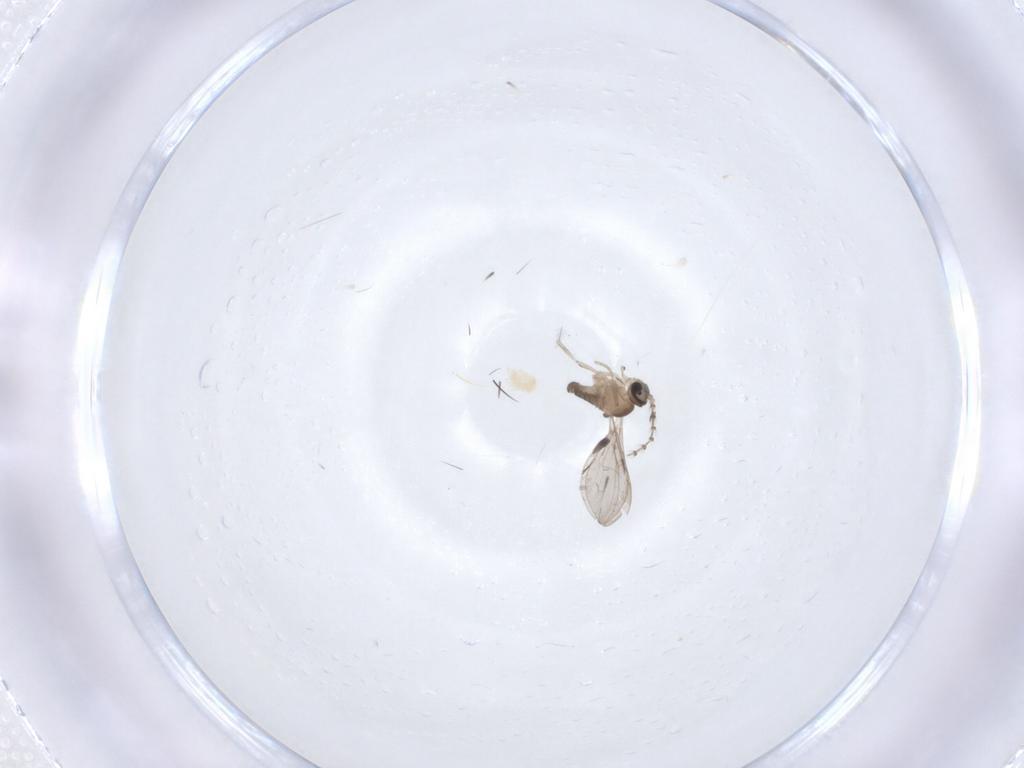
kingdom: Animalia
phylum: Arthropoda
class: Insecta
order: Diptera
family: Cecidomyiidae
